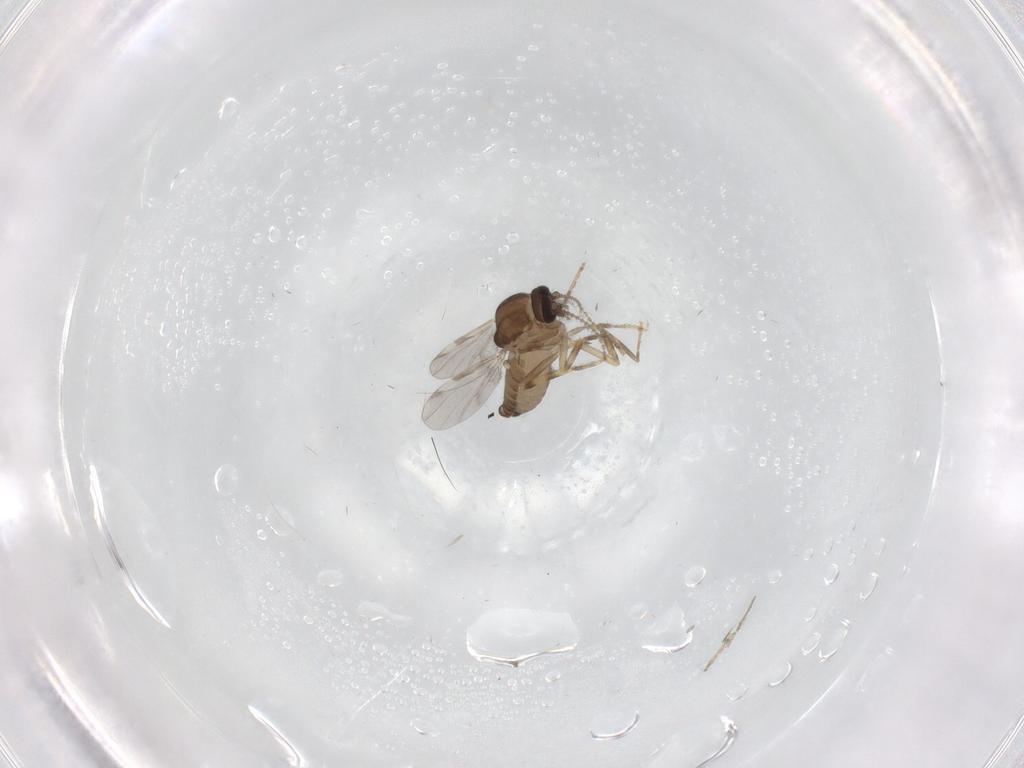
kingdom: Animalia
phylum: Arthropoda
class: Insecta
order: Diptera
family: Ceratopogonidae
